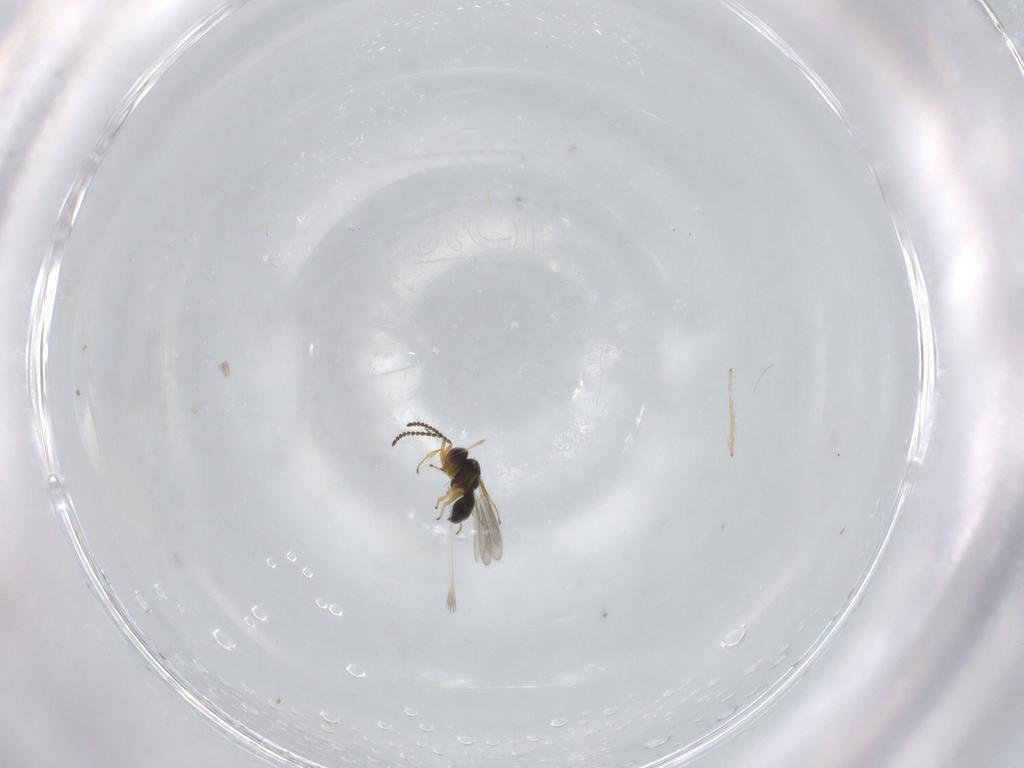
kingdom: Animalia
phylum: Arthropoda
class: Insecta
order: Hymenoptera
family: Scelionidae
